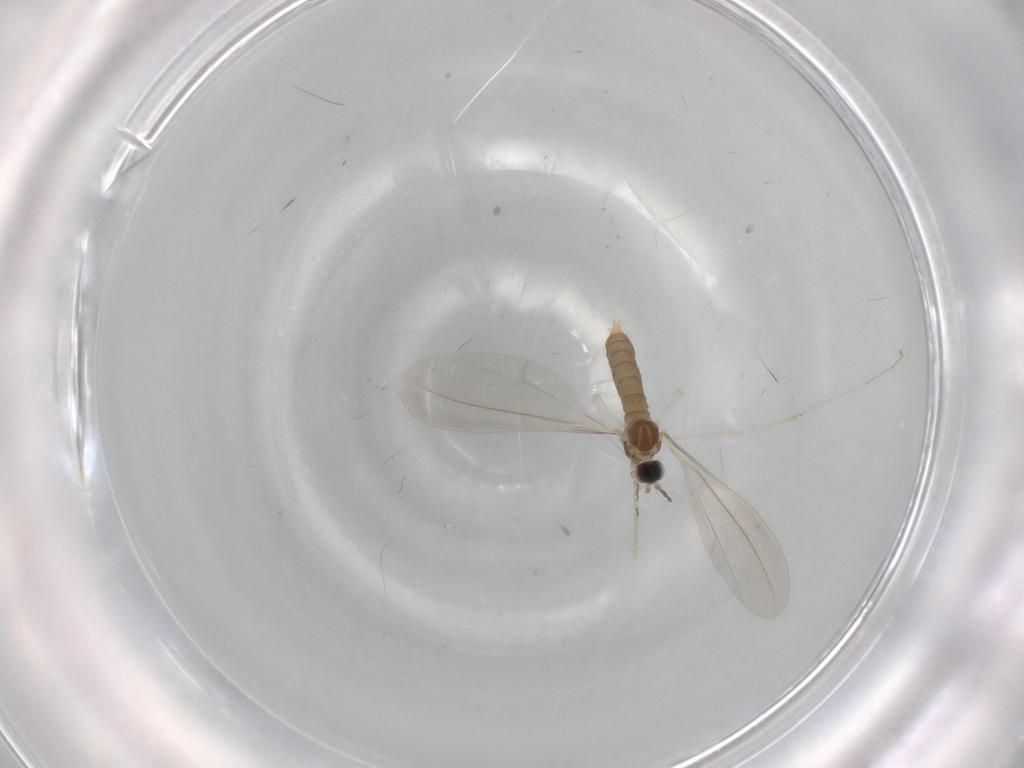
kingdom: Animalia
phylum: Arthropoda
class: Insecta
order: Diptera
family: Cecidomyiidae
